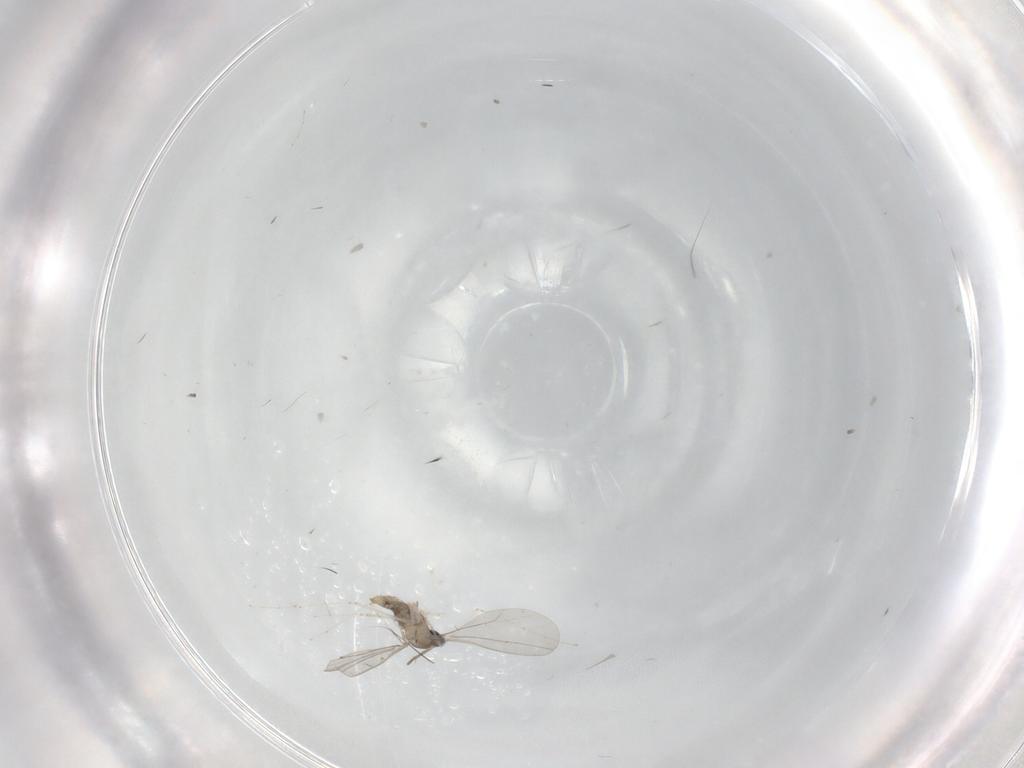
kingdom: Animalia
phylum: Arthropoda
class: Insecta
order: Diptera
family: Cecidomyiidae
